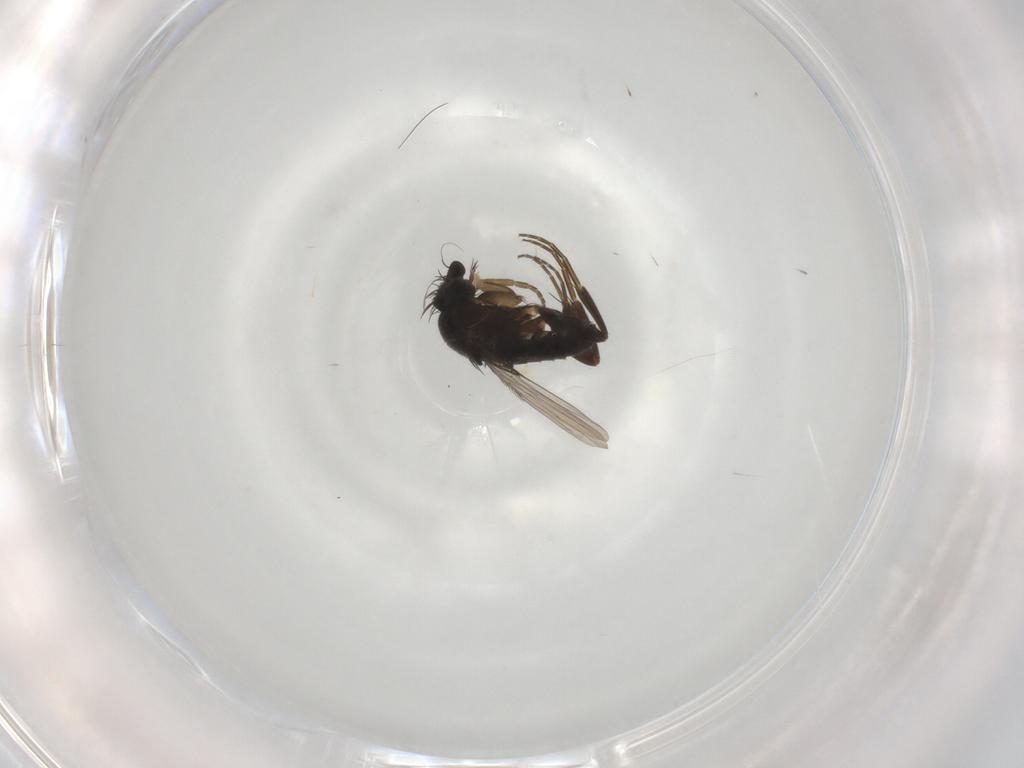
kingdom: Animalia
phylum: Arthropoda
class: Insecta
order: Diptera
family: Phoridae
